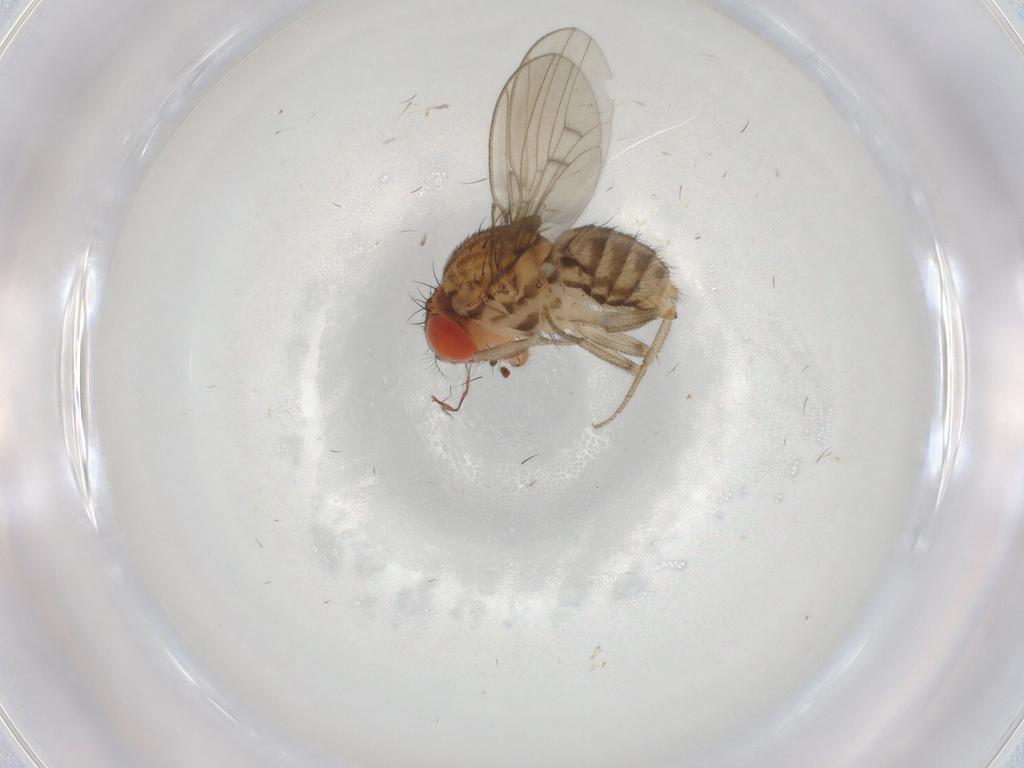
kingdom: Animalia
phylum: Arthropoda
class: Insecta
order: Diptera
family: Drosophilidae
